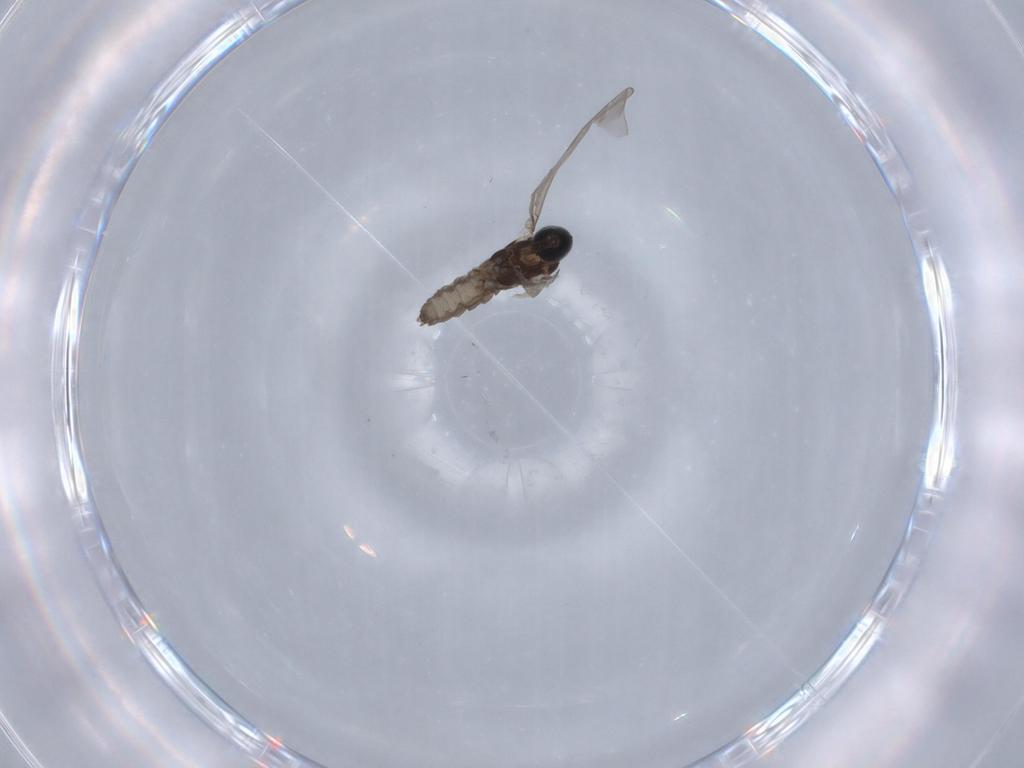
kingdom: Animalia
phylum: Arthropoda
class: Insecta
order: Diptera
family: Cecidomyiidae
